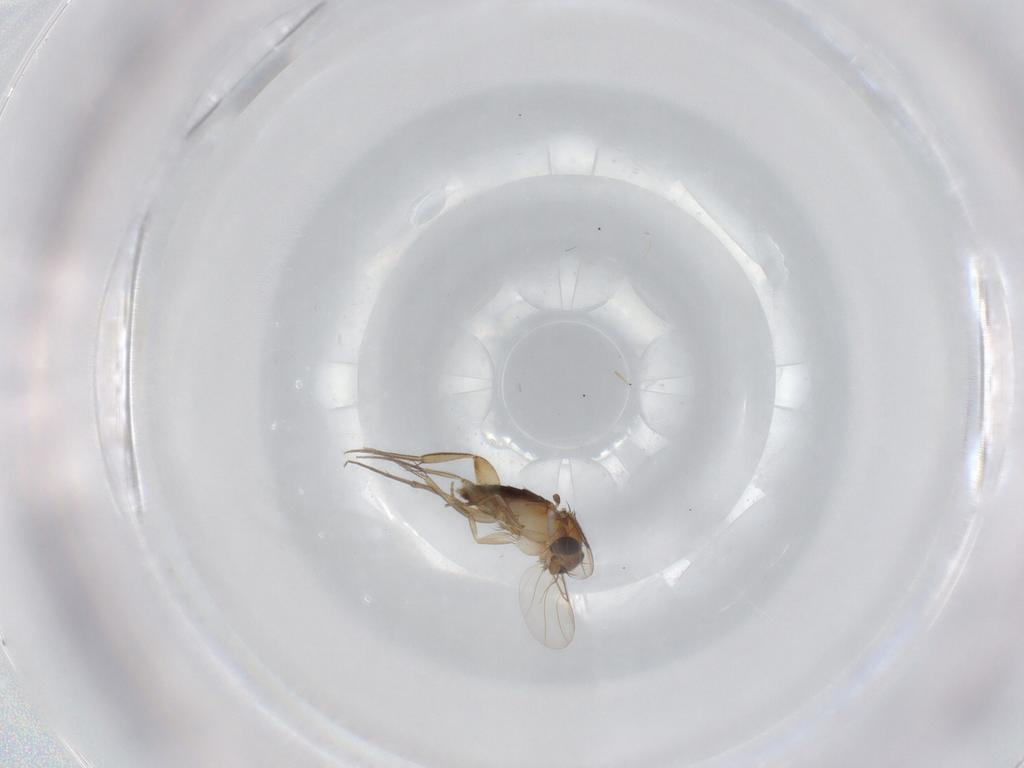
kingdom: Animalia
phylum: Arthropoda
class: Insecta
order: Diptera
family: Phoridae
